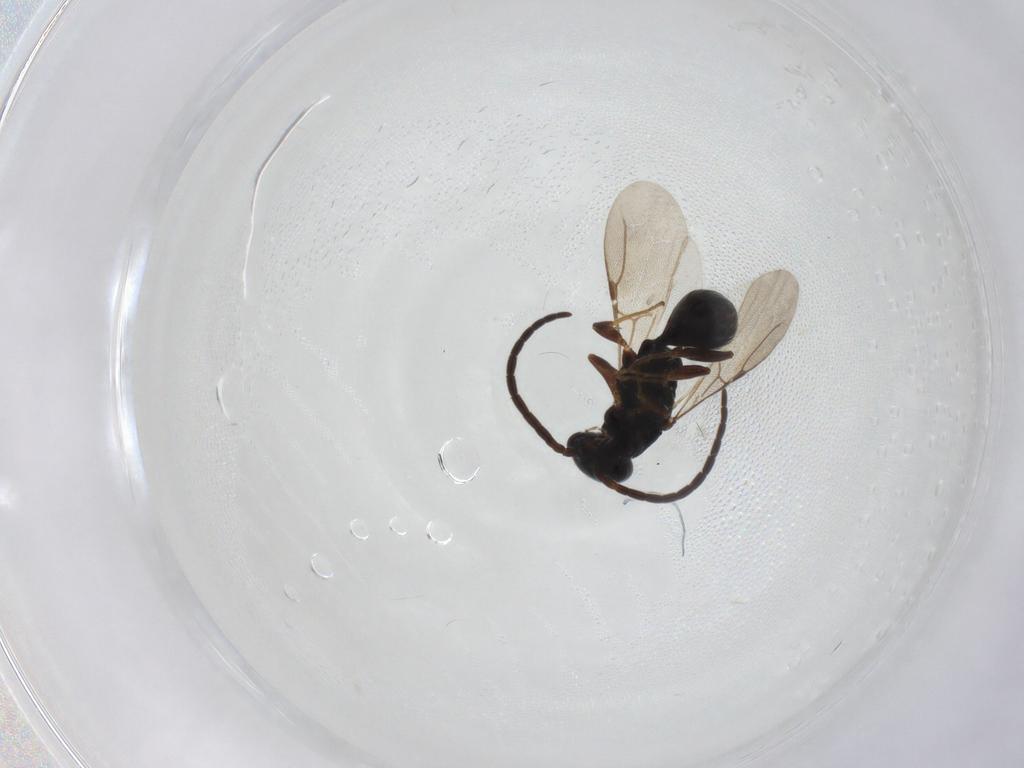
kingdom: Animalia
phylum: Arthropoda
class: Insecta
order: Hymenoptera
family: Bethylidae
